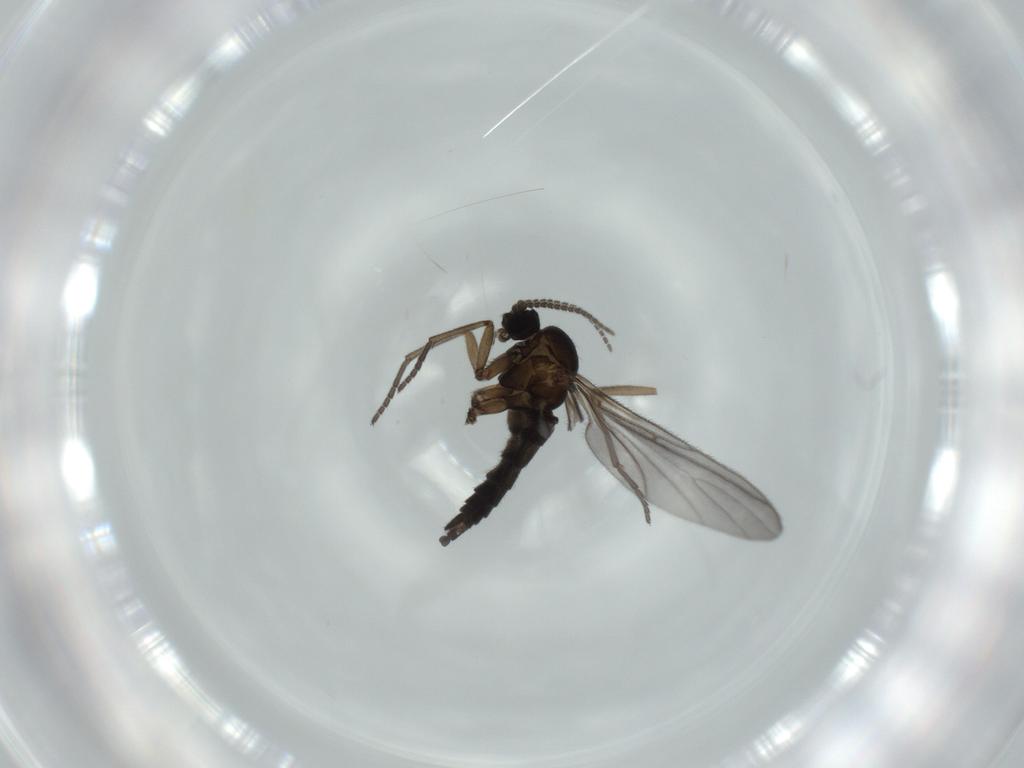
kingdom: Animalia
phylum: Arthropoda
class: Insecta
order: Diptera
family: Sciaridae
